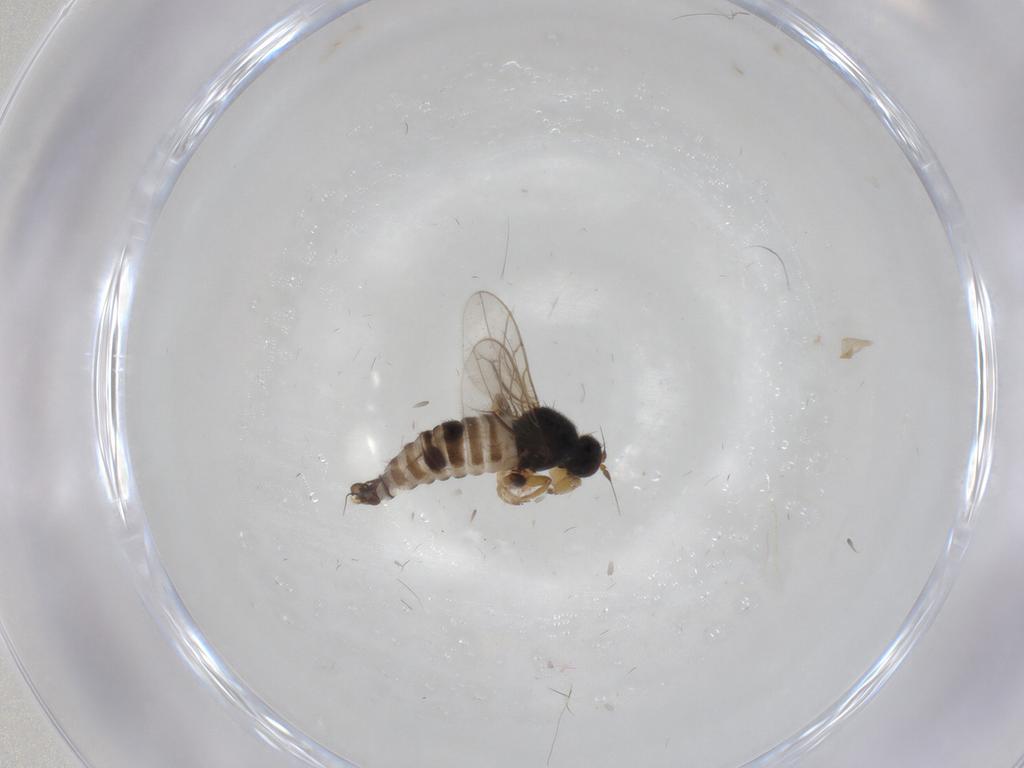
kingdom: Animalia
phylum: Arthropoda
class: Insecta
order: Diptera
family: Hybotidae
